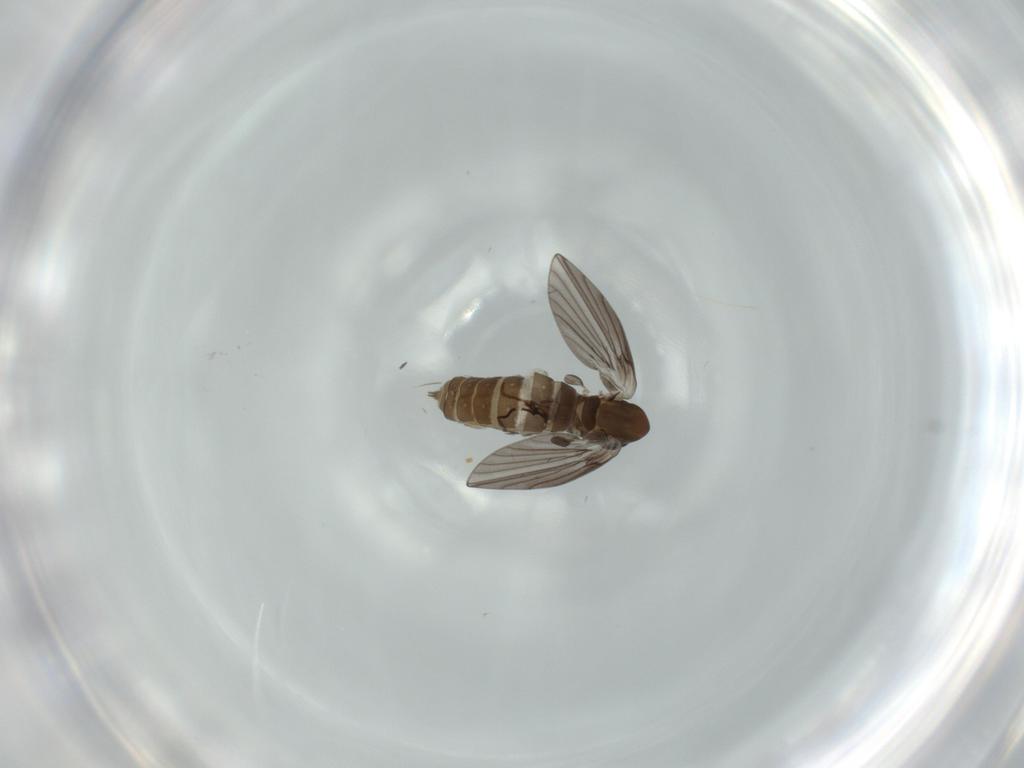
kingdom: Animalia
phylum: Arthropoda
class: Insecta
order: Diptera
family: Psychodidae
